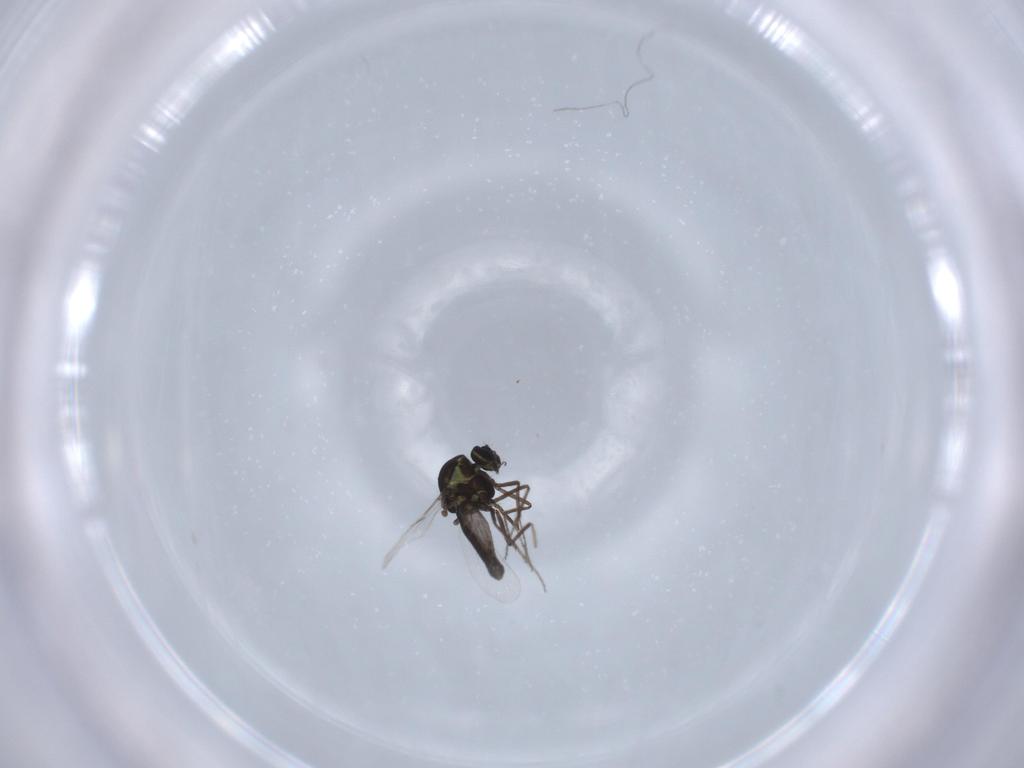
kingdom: Animalia
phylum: Arthropoda
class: Insecta
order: Diptera
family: Ceratopogonidae
